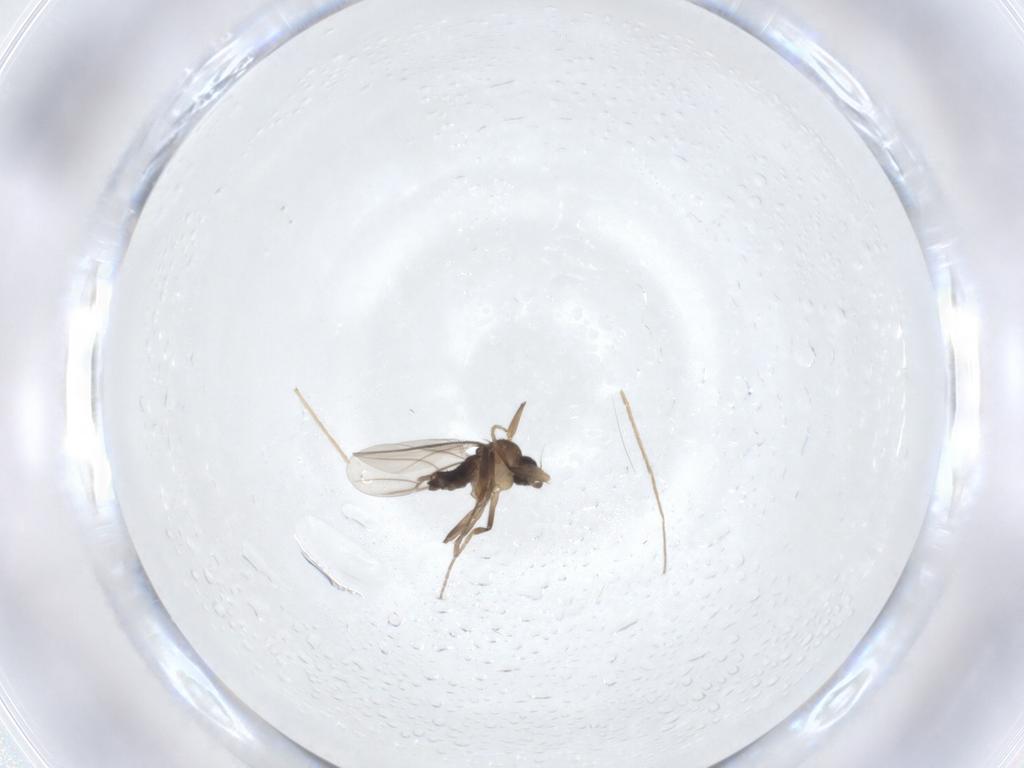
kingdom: Animalia
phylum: Arthropoda
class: Insecta
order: Diptera
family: Chironomidae
